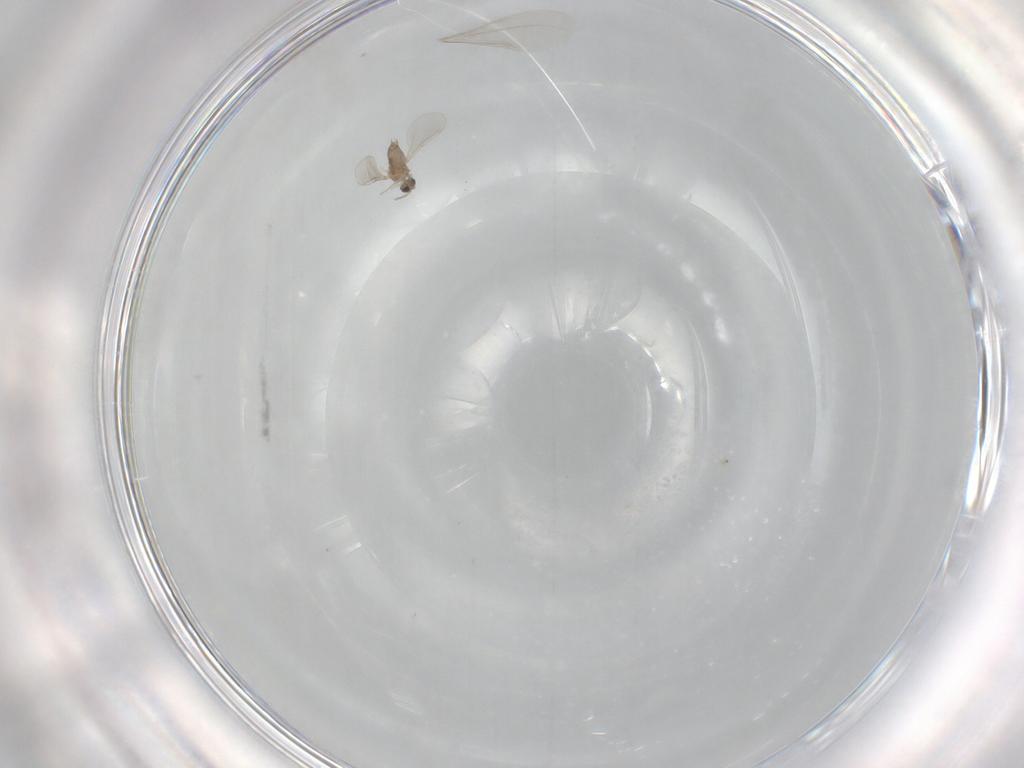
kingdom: Animalia
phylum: Arthropoda
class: Insecta
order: Diptera
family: Cecidomyiidae
